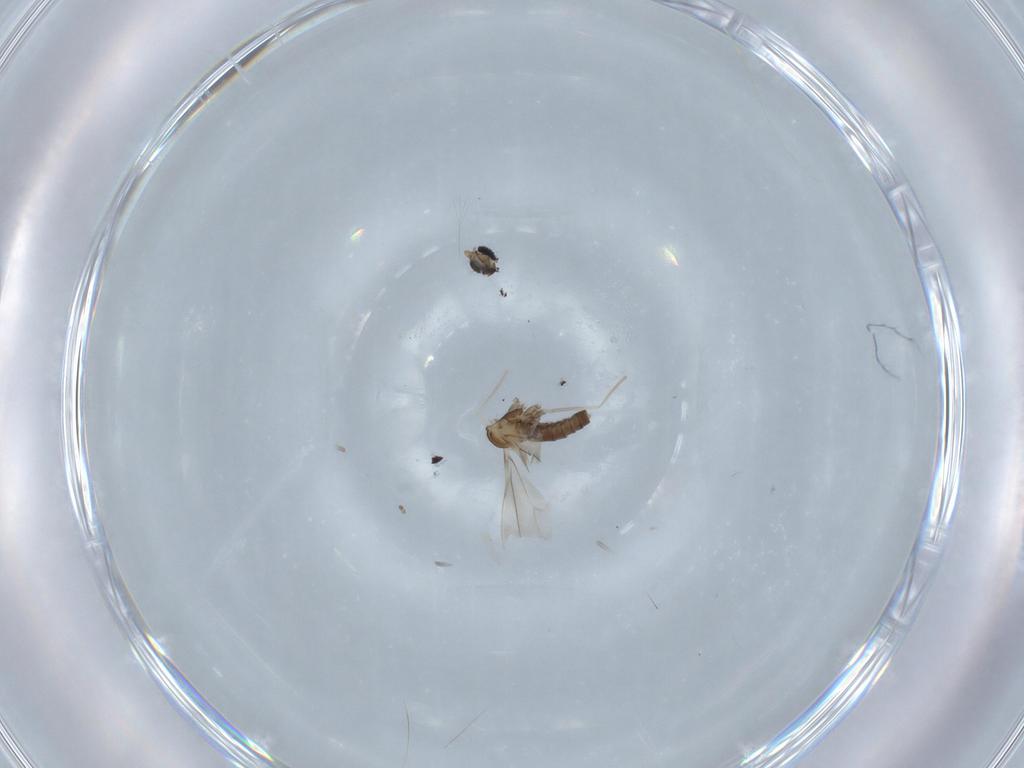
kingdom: Animalia
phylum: Arthropoda
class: Insecta
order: Diptera
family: Cecidomyiidae
